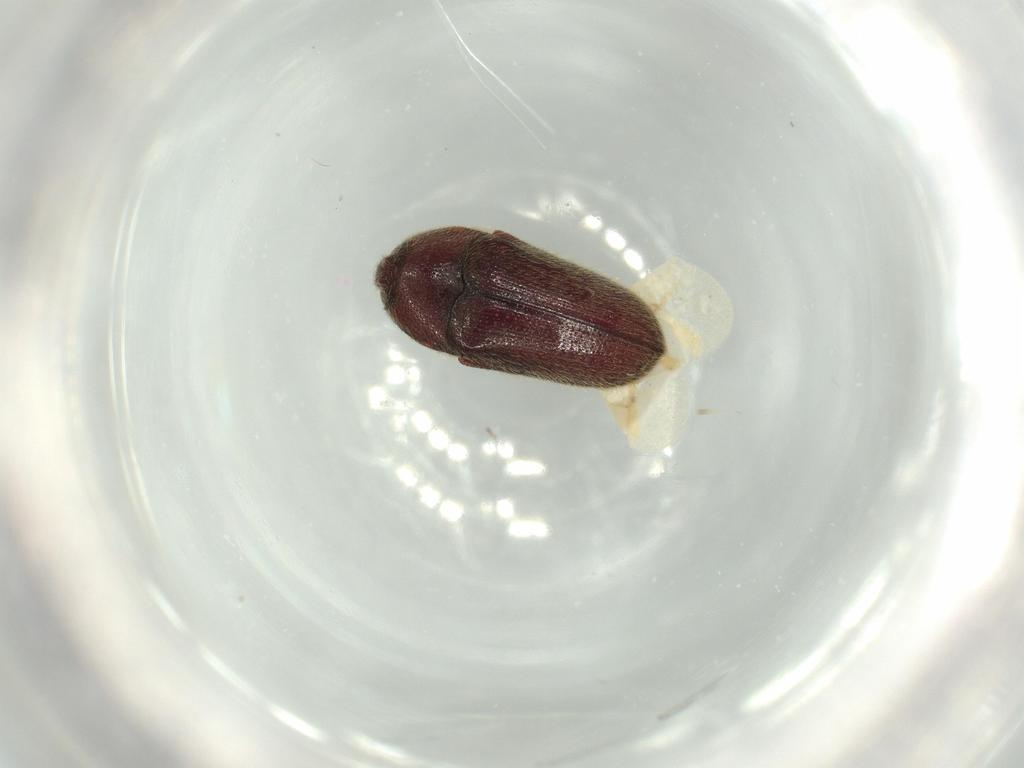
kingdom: Animalia
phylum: Arthropoda
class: Insecta
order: Coleoptera
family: Throscidae
